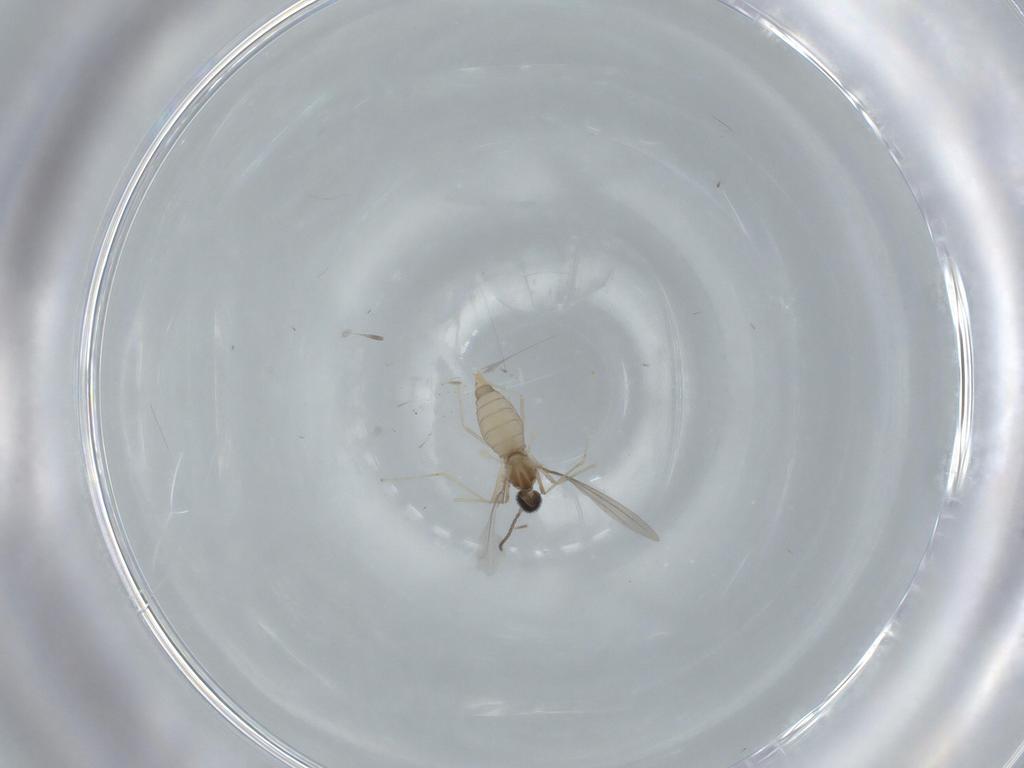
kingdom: Animalia
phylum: Arthropoda
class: Insecta
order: Diptera
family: Cecidomyiidae
